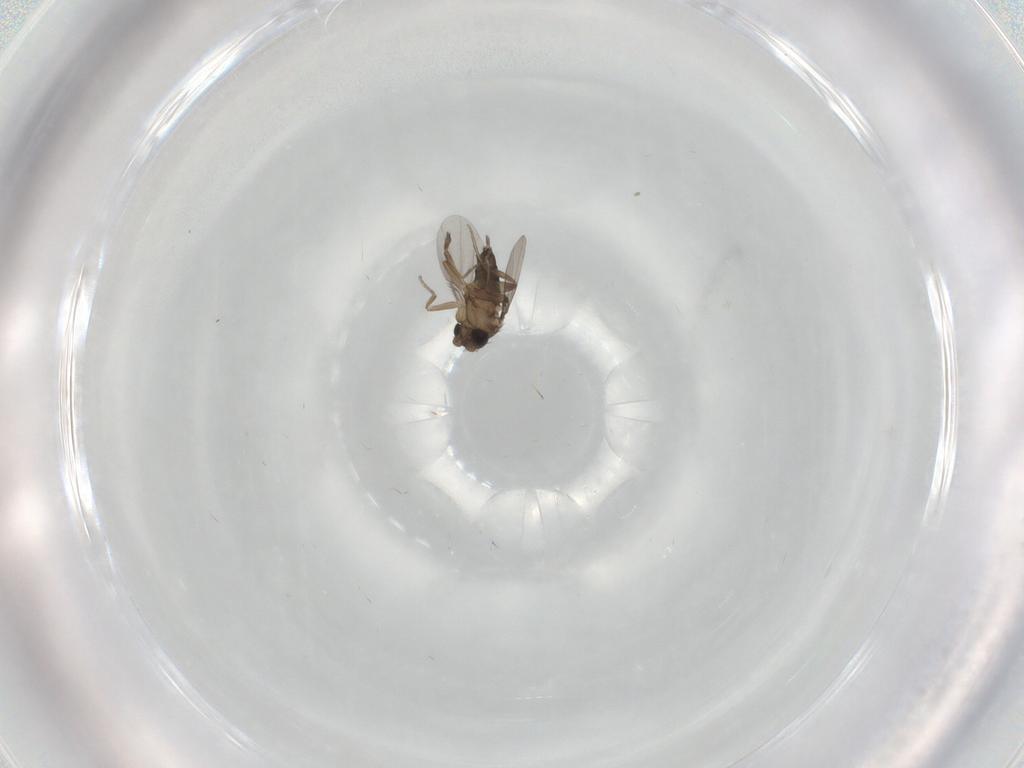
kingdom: Animalia
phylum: Arthropoda
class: Insecta
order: Diptera
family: Phoridae
